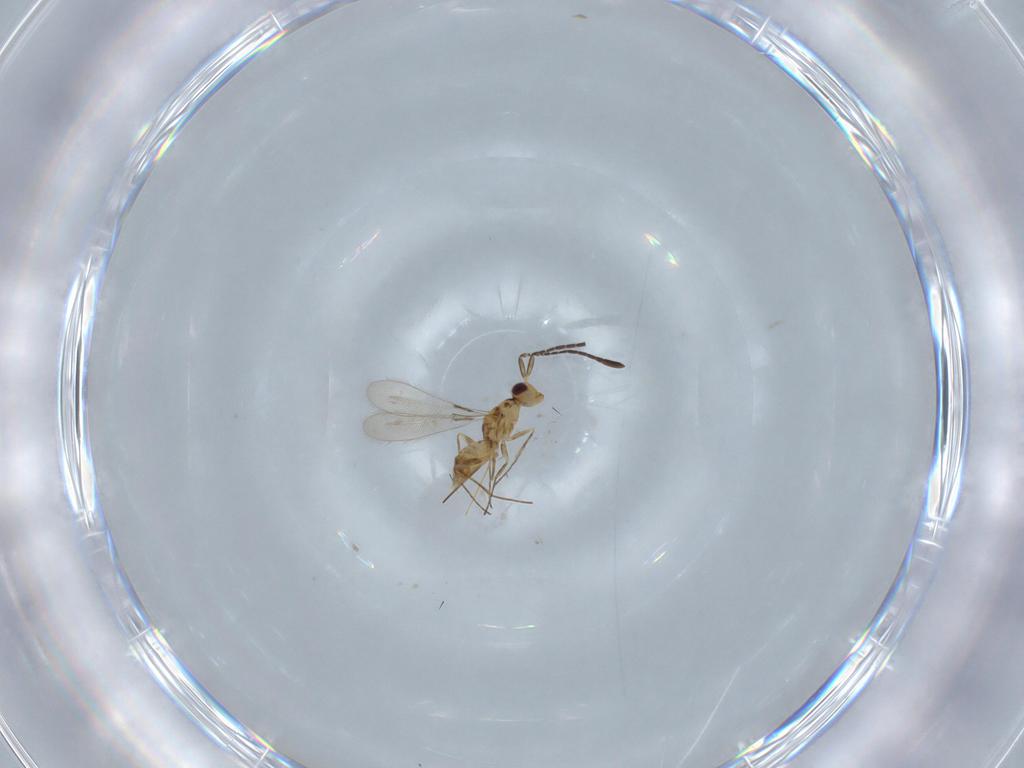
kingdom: Animalia
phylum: Arthropoda
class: Insecta
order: Hymenoptera
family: Mymaridae
